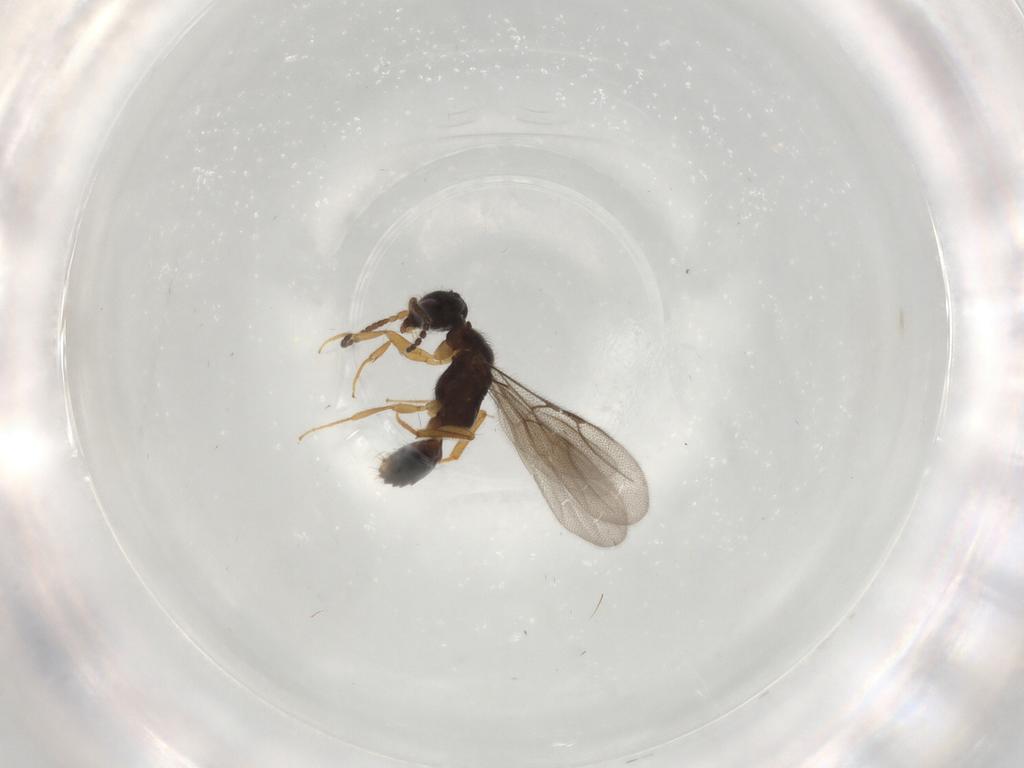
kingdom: Animalia
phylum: Arthropoda
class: Insecta
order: Hymenoptera
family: Bethylidae
